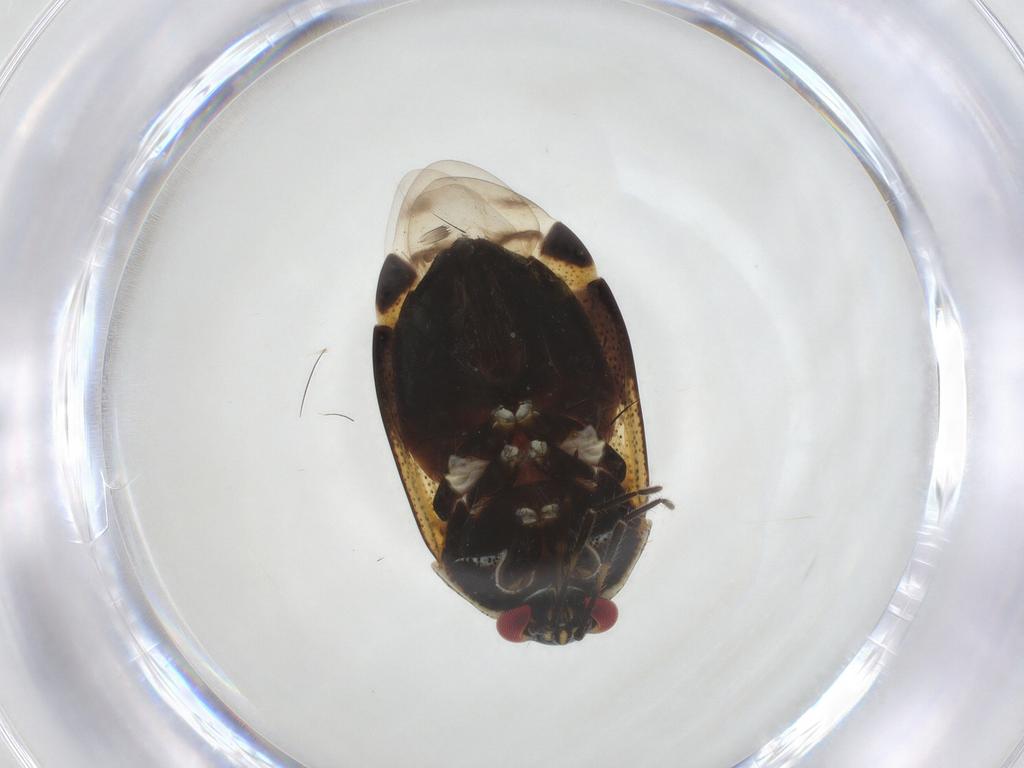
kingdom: Animalia
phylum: Arthropoda
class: Insecta
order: Hemiptera
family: Miridae
